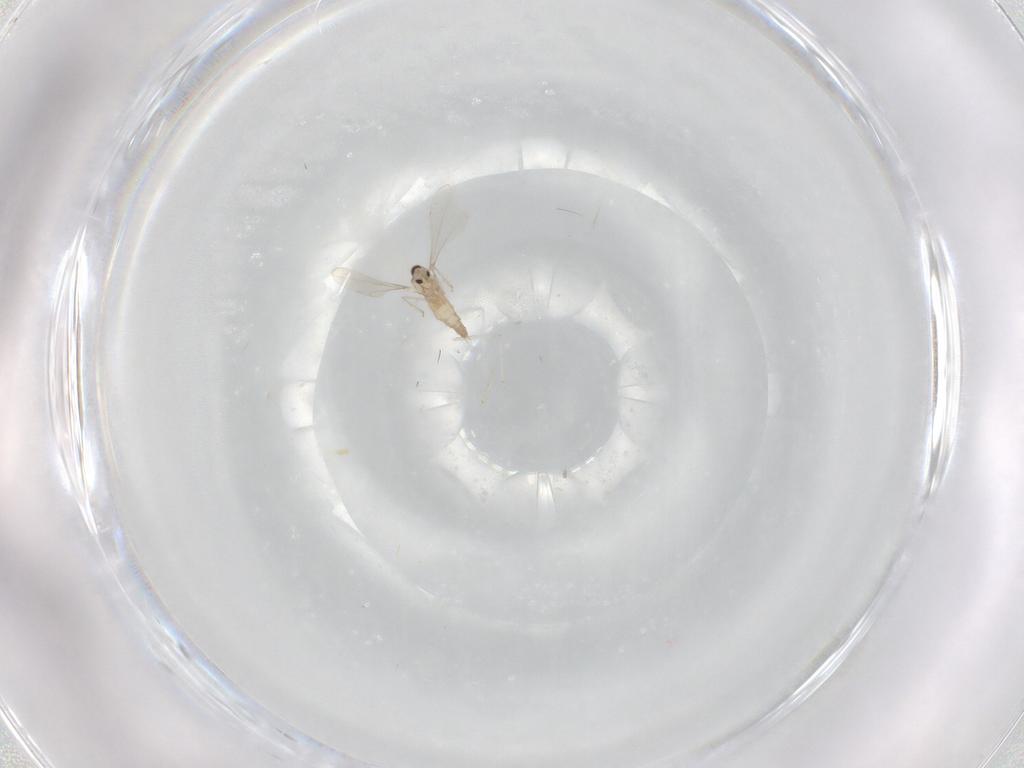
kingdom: Animalia
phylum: Arthropoda
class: Insecta
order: Diptera
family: Cecidomyiidae
